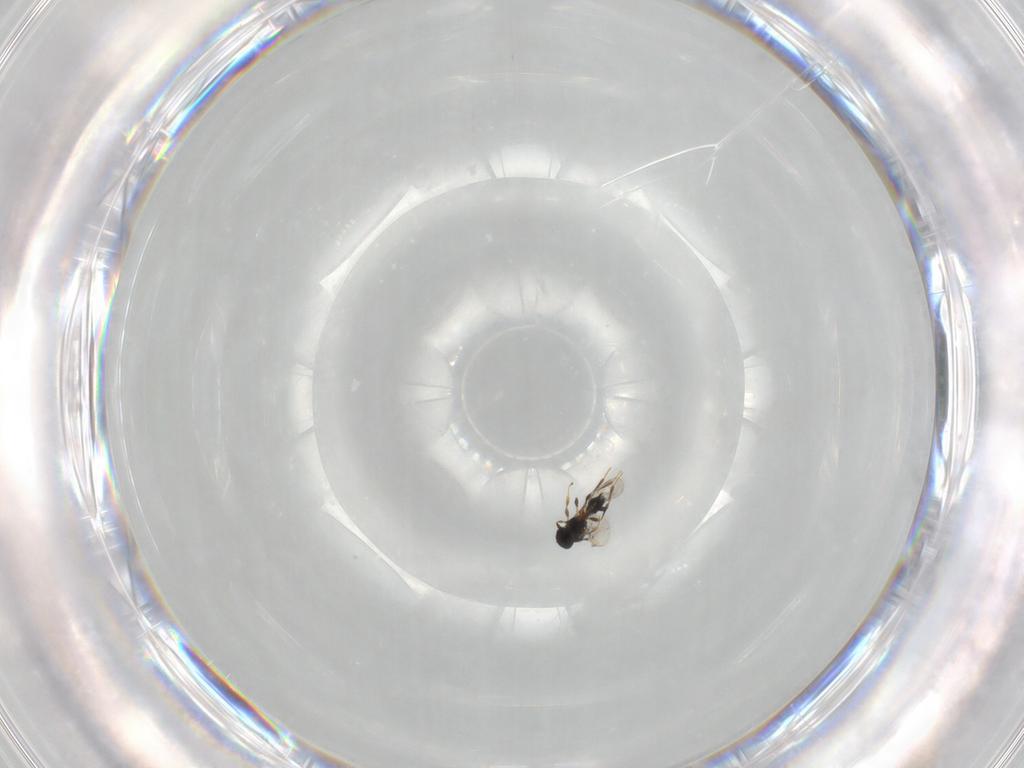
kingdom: Animalia
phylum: Arthropoda
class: Insecta
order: Hymenoptera
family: Platygastridae
